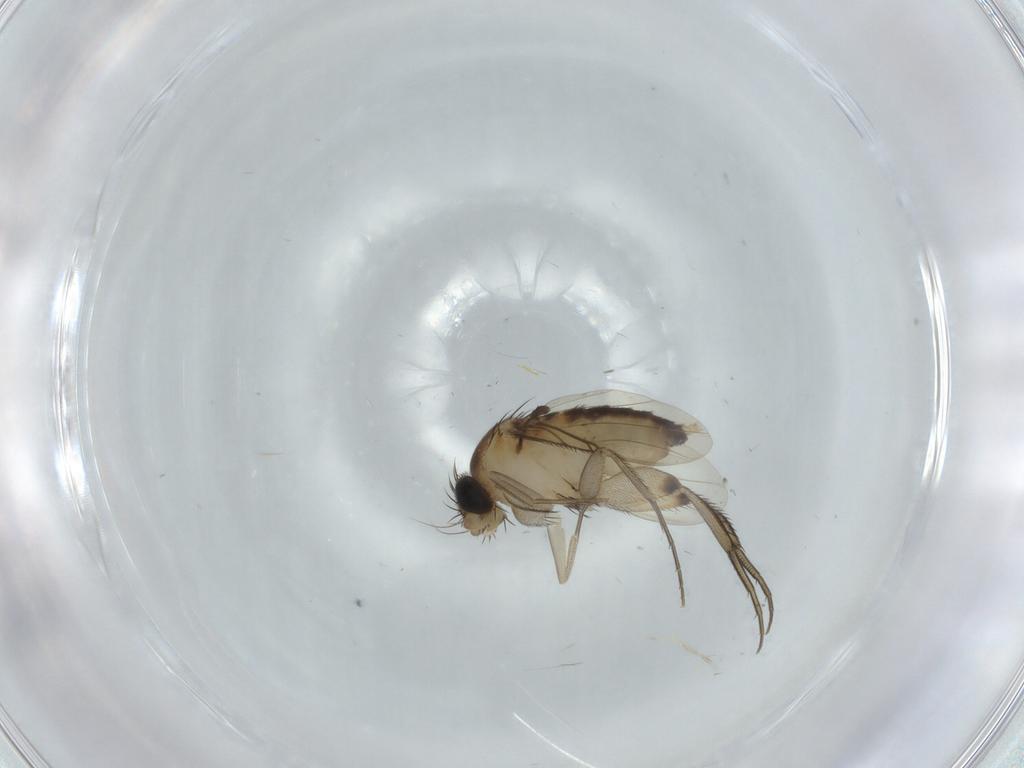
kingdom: Animalia
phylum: Arthropoda
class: Insecta
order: Diptera
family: Phoridae
